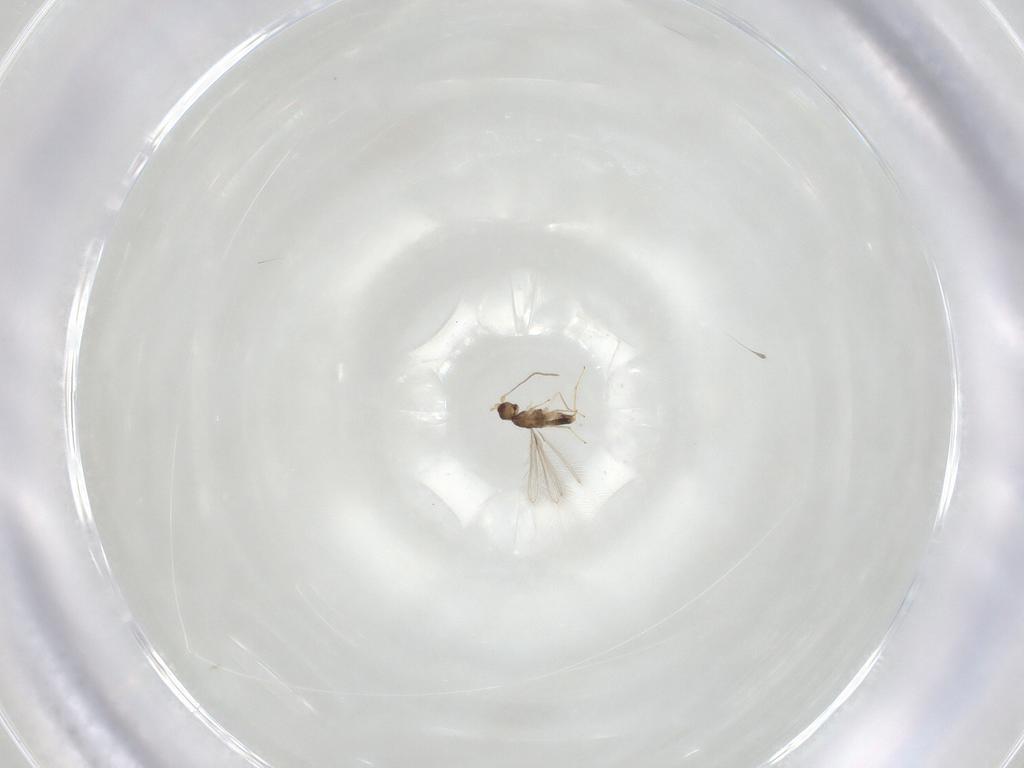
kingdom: Animalia
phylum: Arthropoda
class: Insecta
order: Hymenoptera
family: Mymaridae
